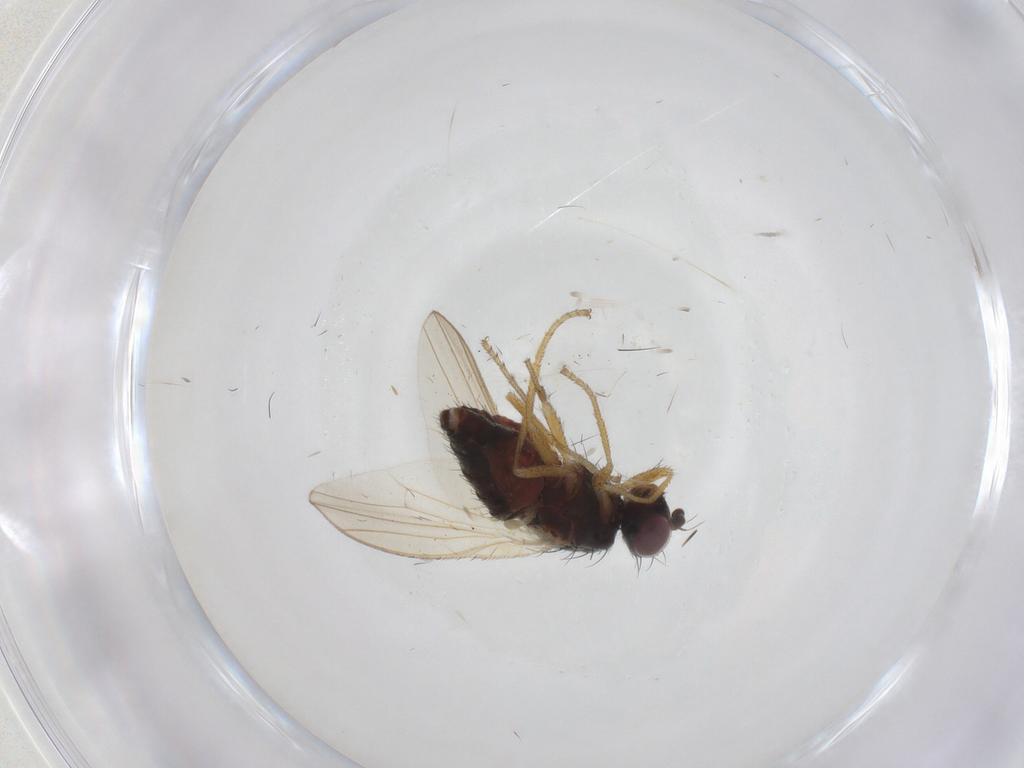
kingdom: Animalia
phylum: Arthropoda
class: Insecta
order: Diptera
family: Heleomyzidae
